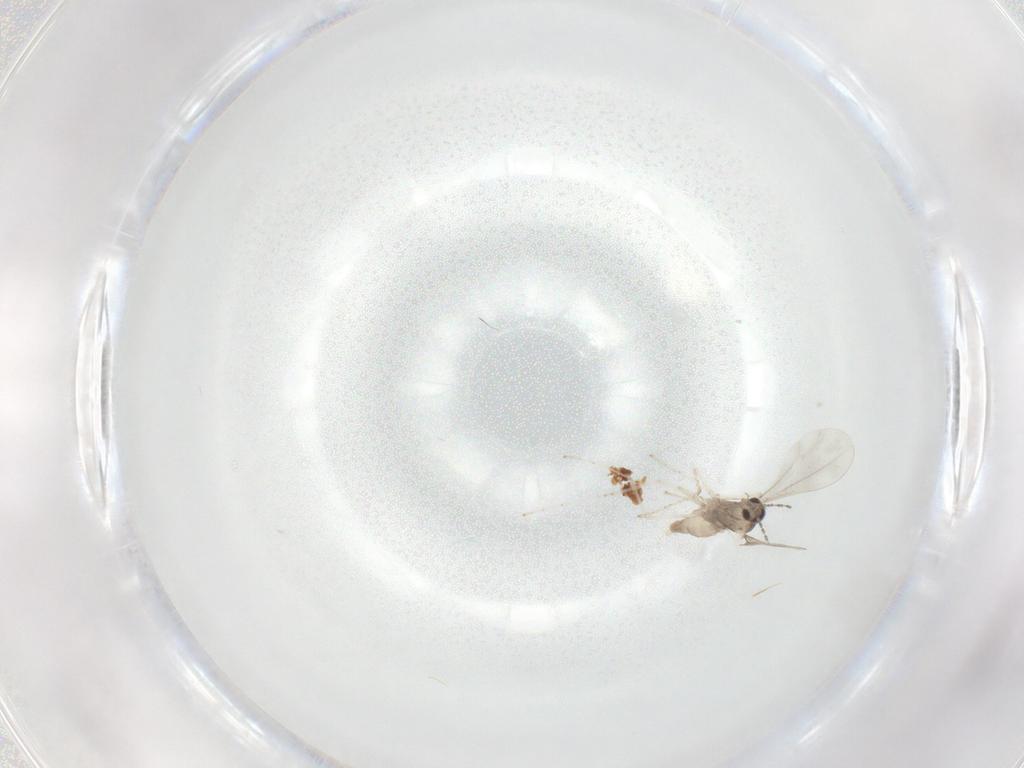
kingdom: Animalia
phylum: Arthropoda
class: Insecta
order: Diptera
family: Cecidomyiidae
